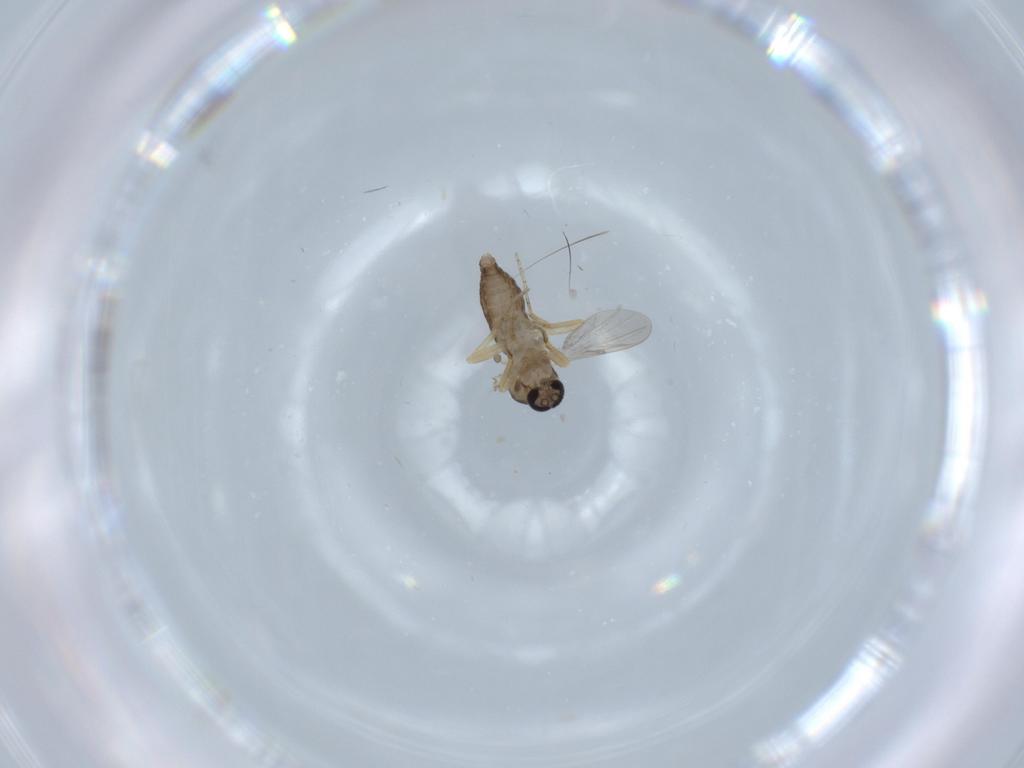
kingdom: Animalia
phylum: Arthropoda
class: Insecta
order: Diptera
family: Ceratopogonidae
